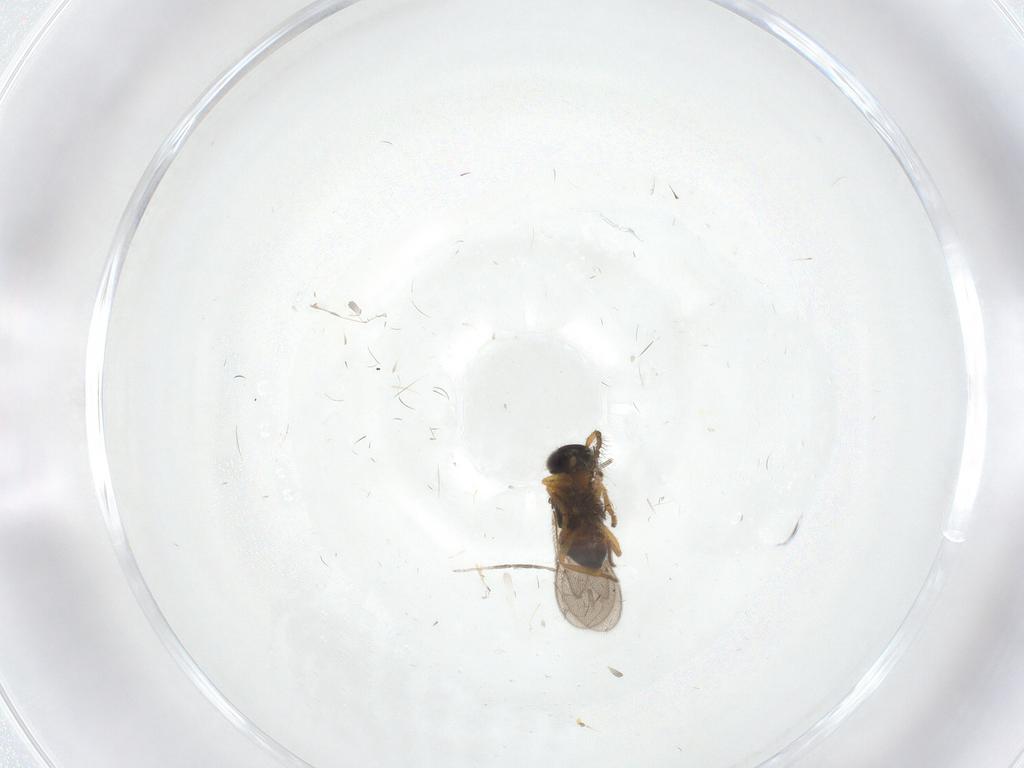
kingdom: Animalia
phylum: Arthropoda
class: Insecta
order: Hymenoptera
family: Encyrtidae
